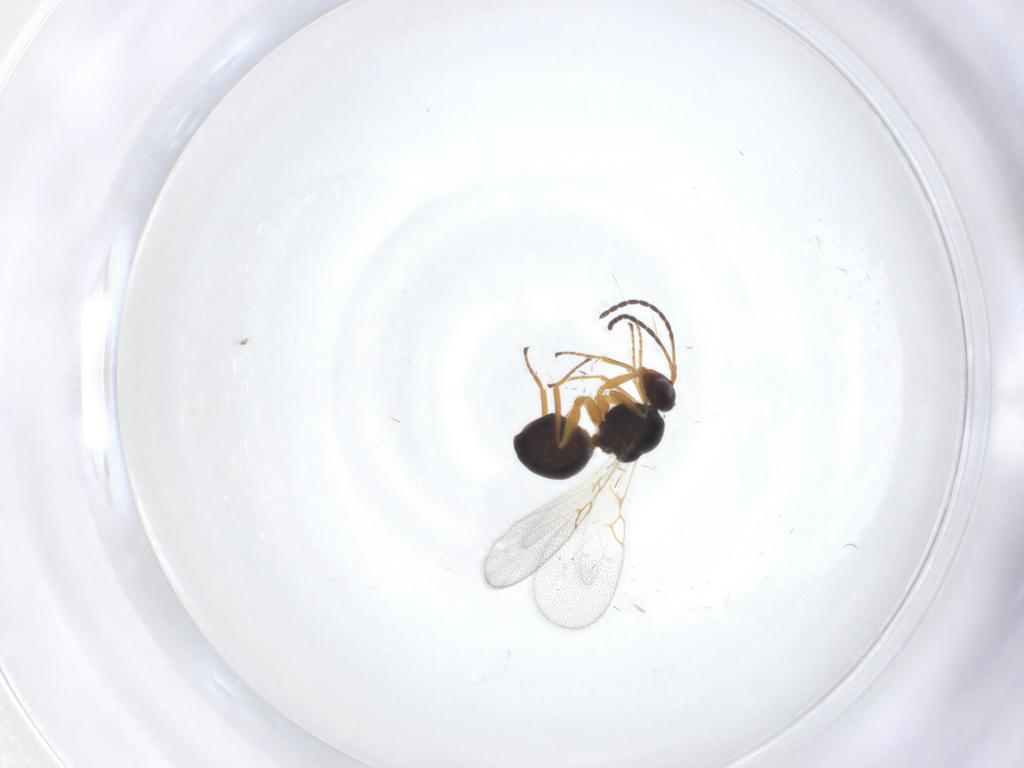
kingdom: Animalia
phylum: Arthropoda
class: Insecta
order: Hymenoptera
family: Figitidae
